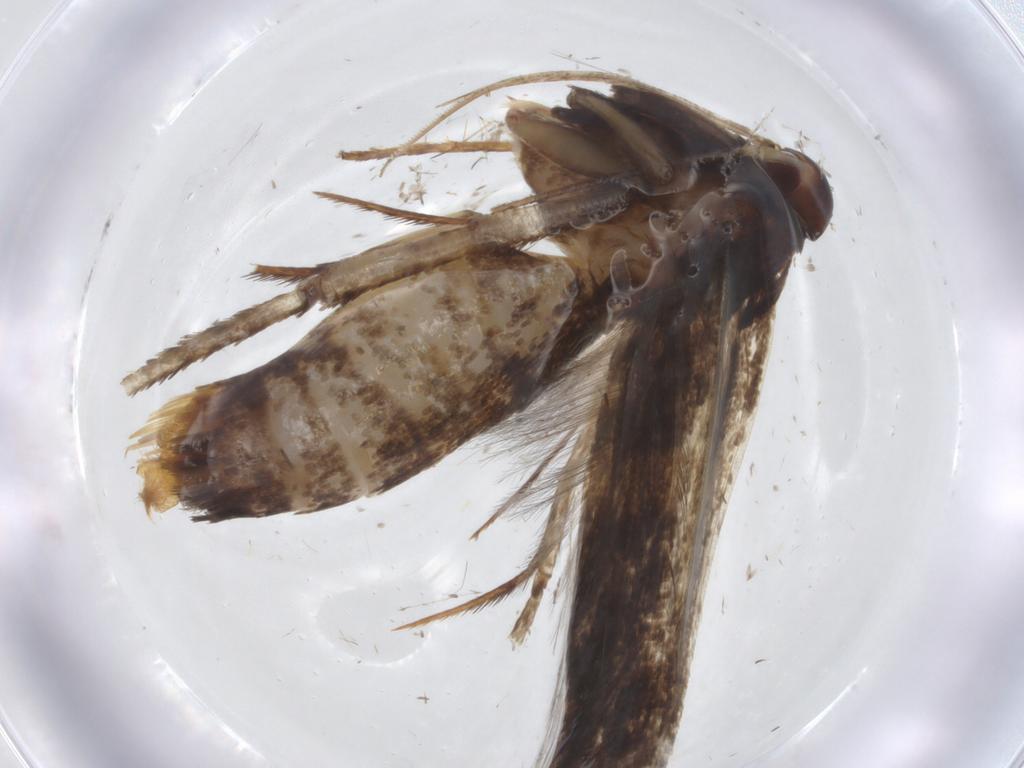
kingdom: Animalia
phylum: Arthropoda
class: Insecta
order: Lepidoptera
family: Gelechiidae
